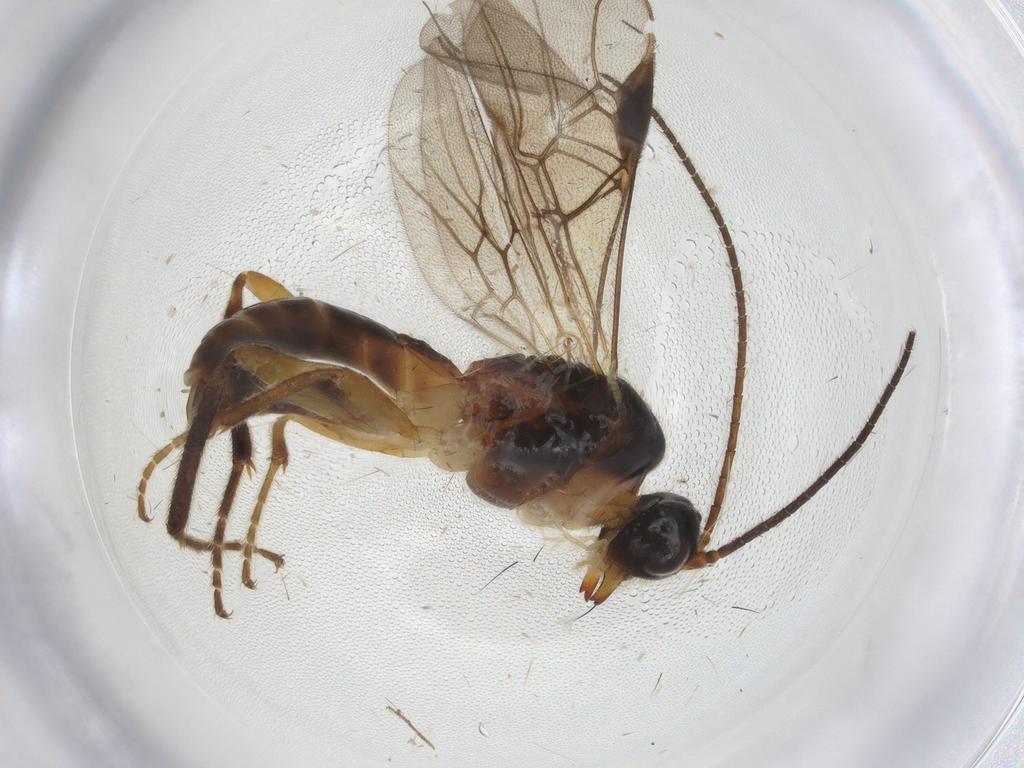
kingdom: Animalia
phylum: Arthropoda
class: Insecta
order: Hymenoptera
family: Braconidae
